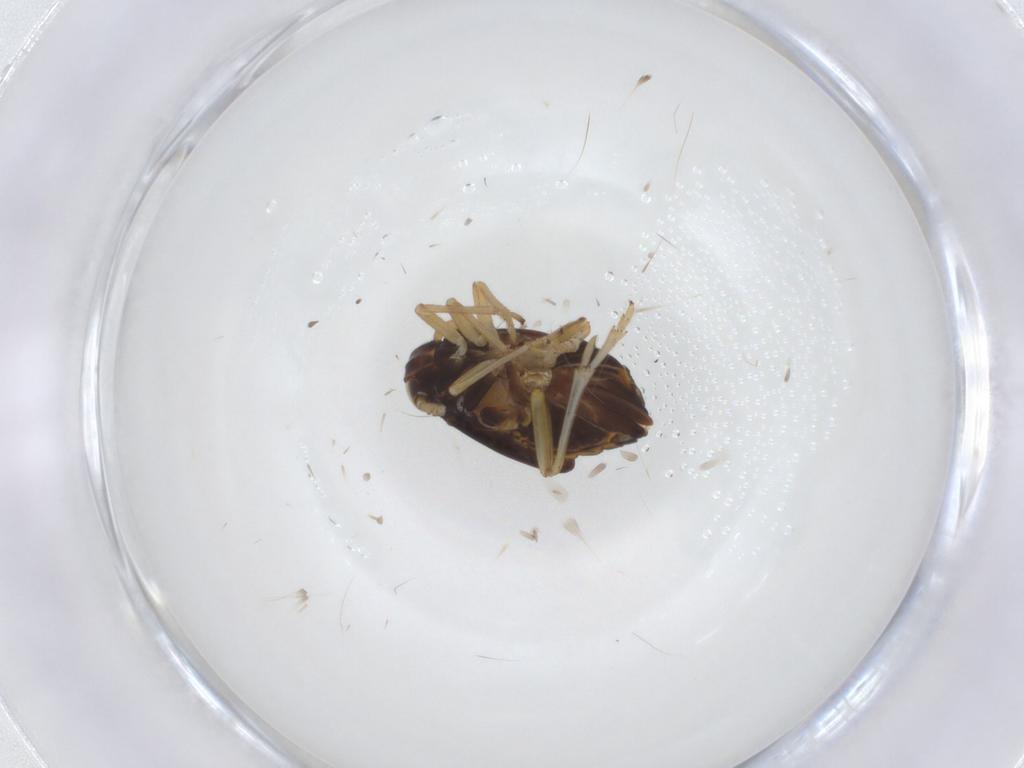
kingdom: Animalia
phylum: Arthropoda
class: Insecta
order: Hemiptera
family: Delphacidae
